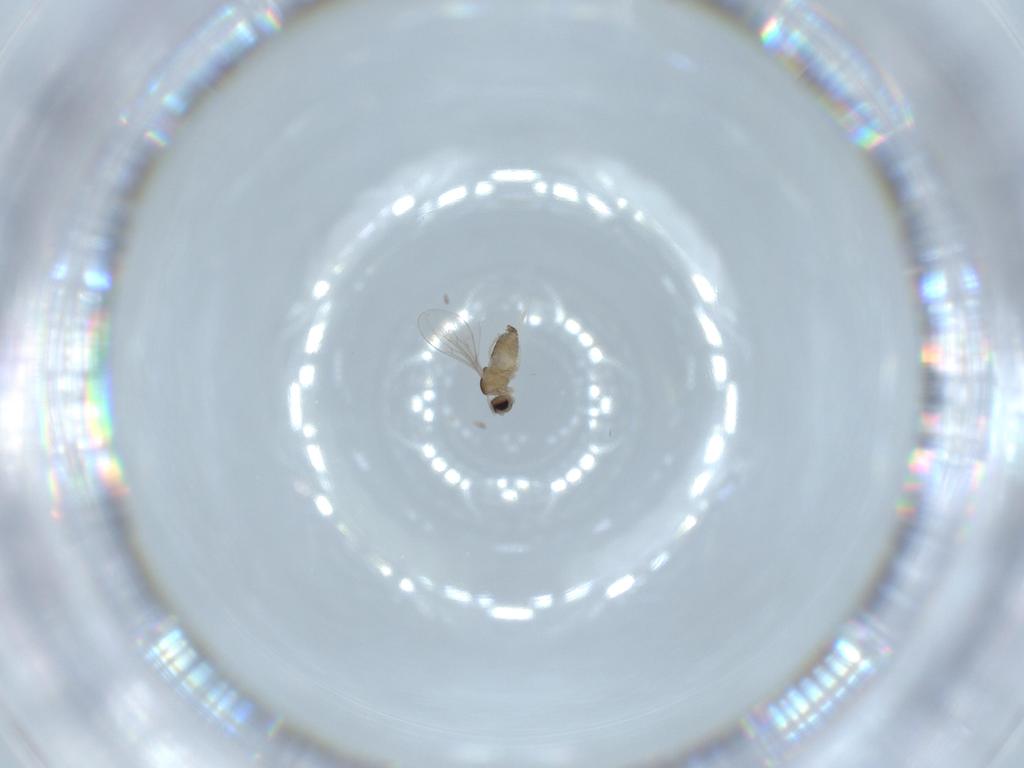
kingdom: Animalia
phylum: Arthropoda
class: Insecta
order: Diptera
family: Cecidomyiidae
